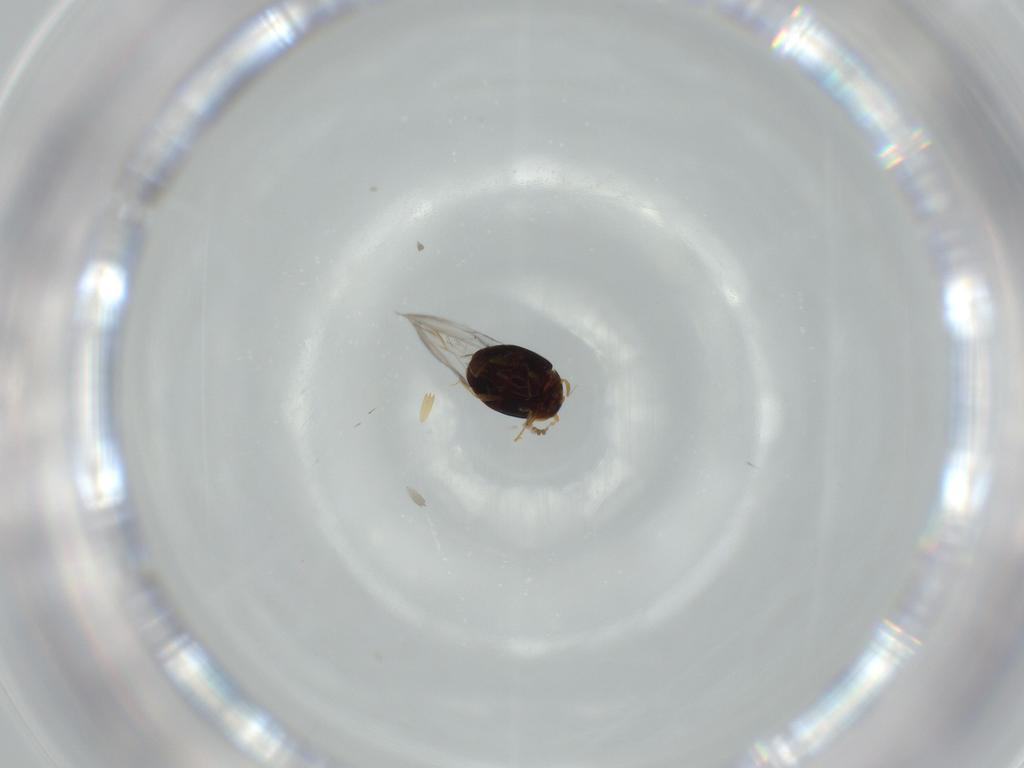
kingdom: Animalia
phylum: Arthropoda
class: Insecta
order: Coleoptera
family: Corylophidae
